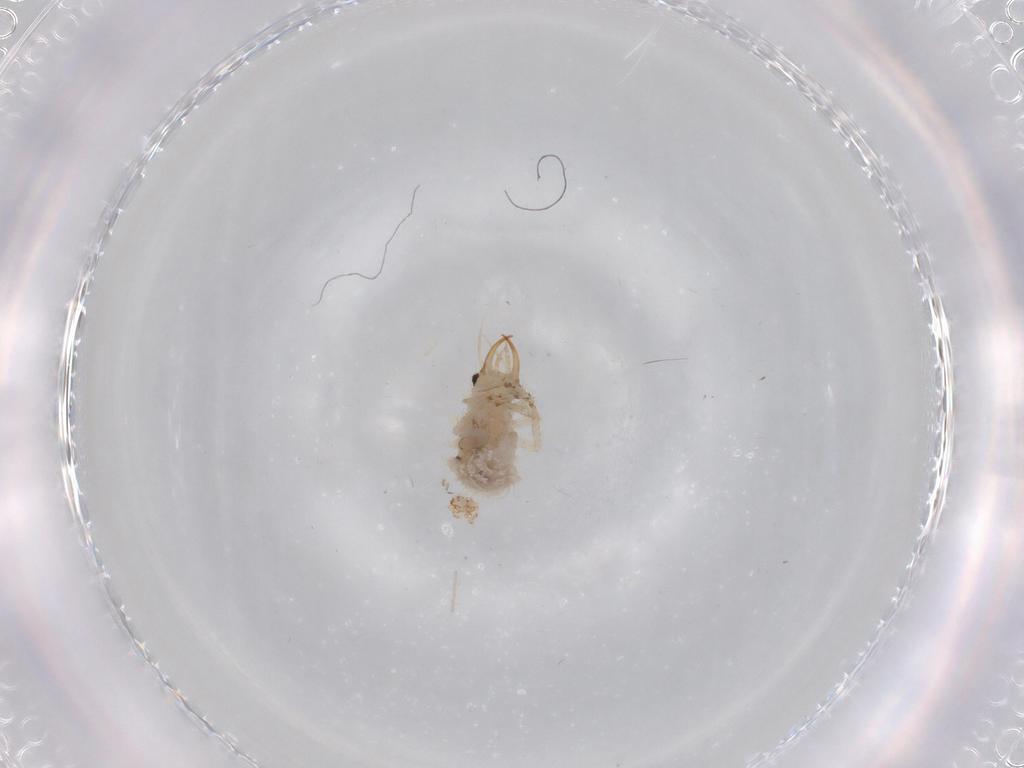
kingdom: Animalia
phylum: Arthropoda
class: Insecta
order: Neuroptera
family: Chrysopidae
